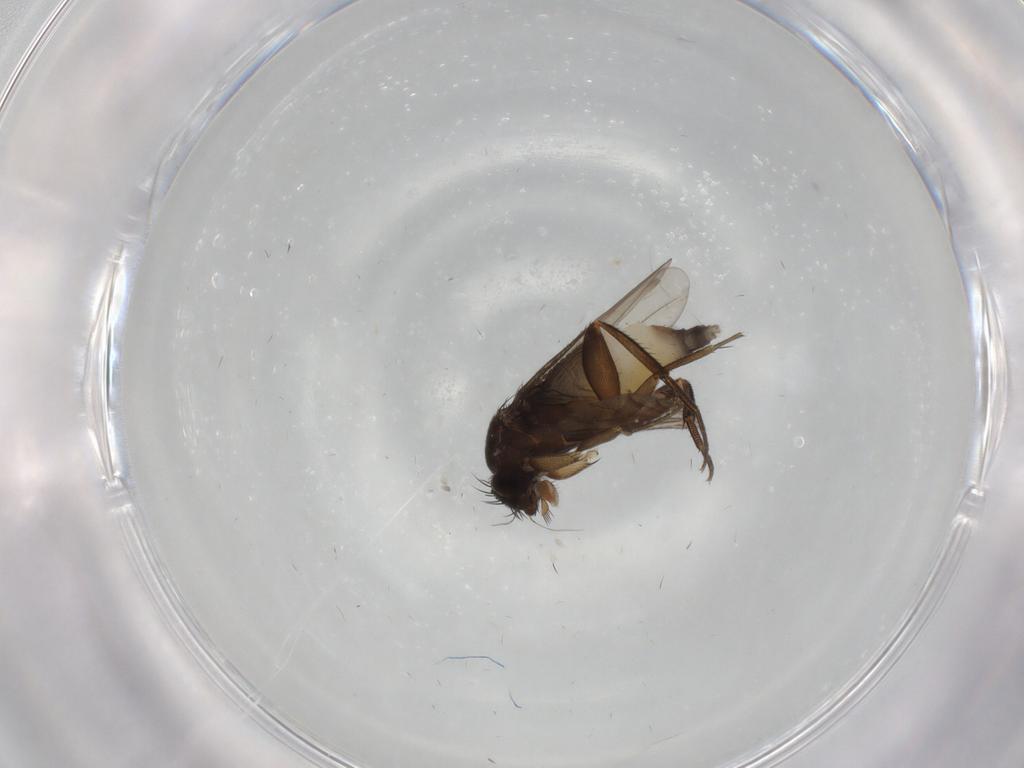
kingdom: Animalia
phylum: Arthropoda
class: Insecta
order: Diptera
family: Phoridae
